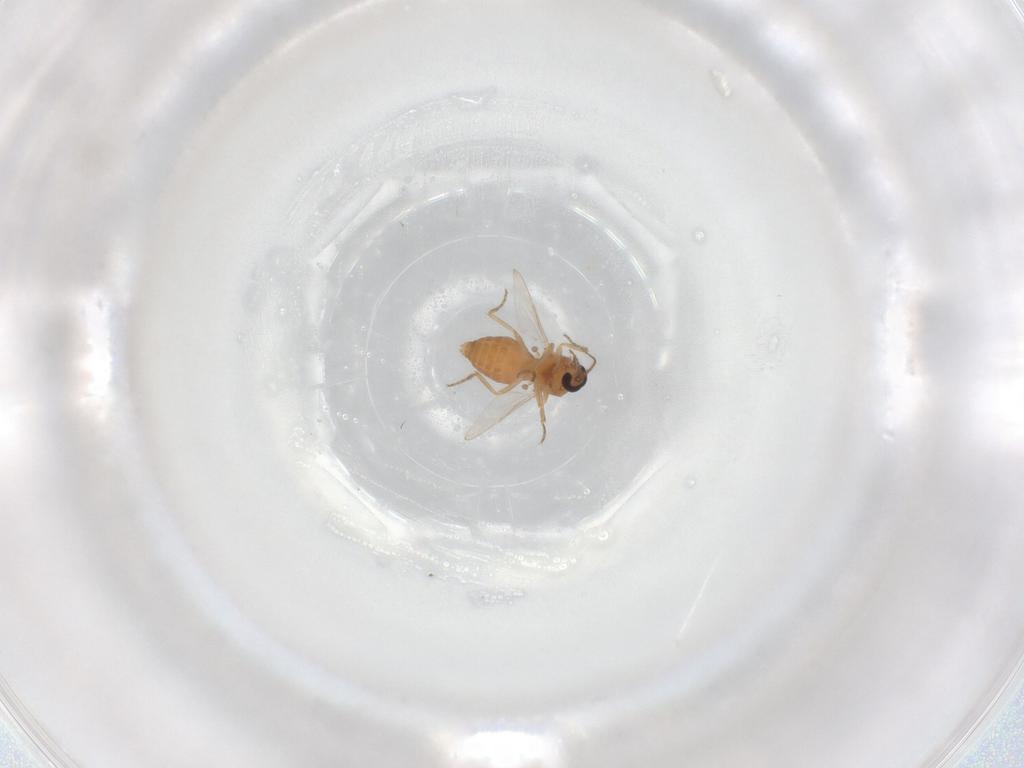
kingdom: Animalia
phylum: Arthropoda
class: Insecta
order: Diptera
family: Ceratopogonidae
